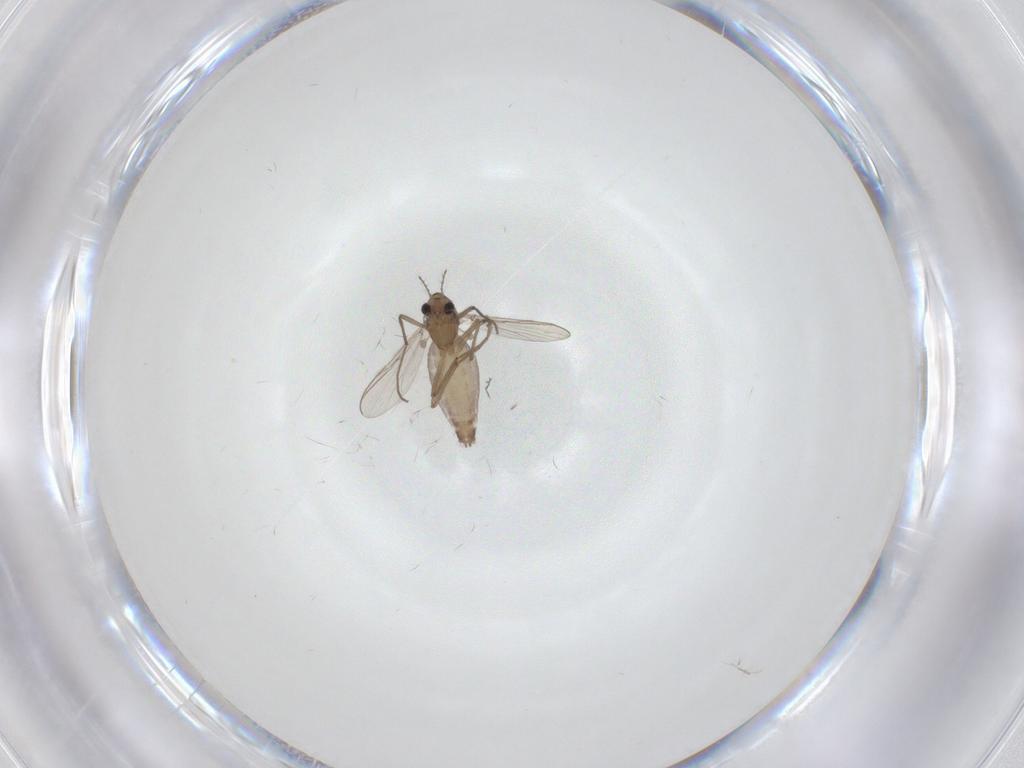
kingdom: Animalia
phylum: Arthropoda
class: Insecta
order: Diptera
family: Chironomidae
